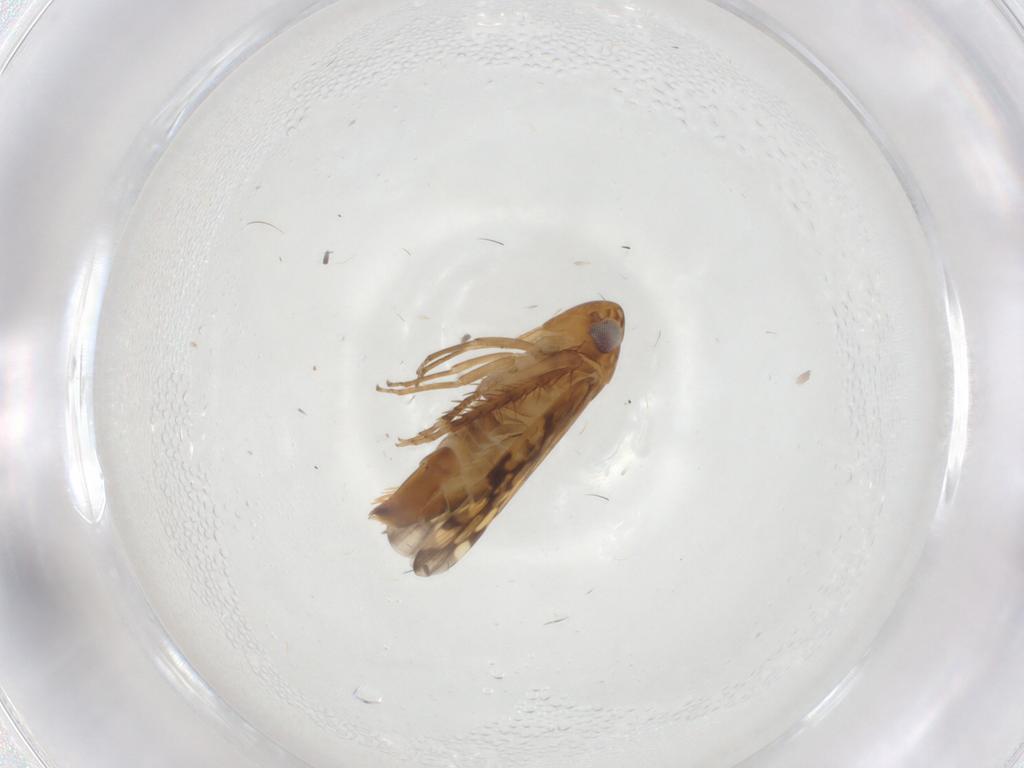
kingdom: Animalia
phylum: Arthropoda
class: Insecta
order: Hemiptera
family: Cicadellidae
